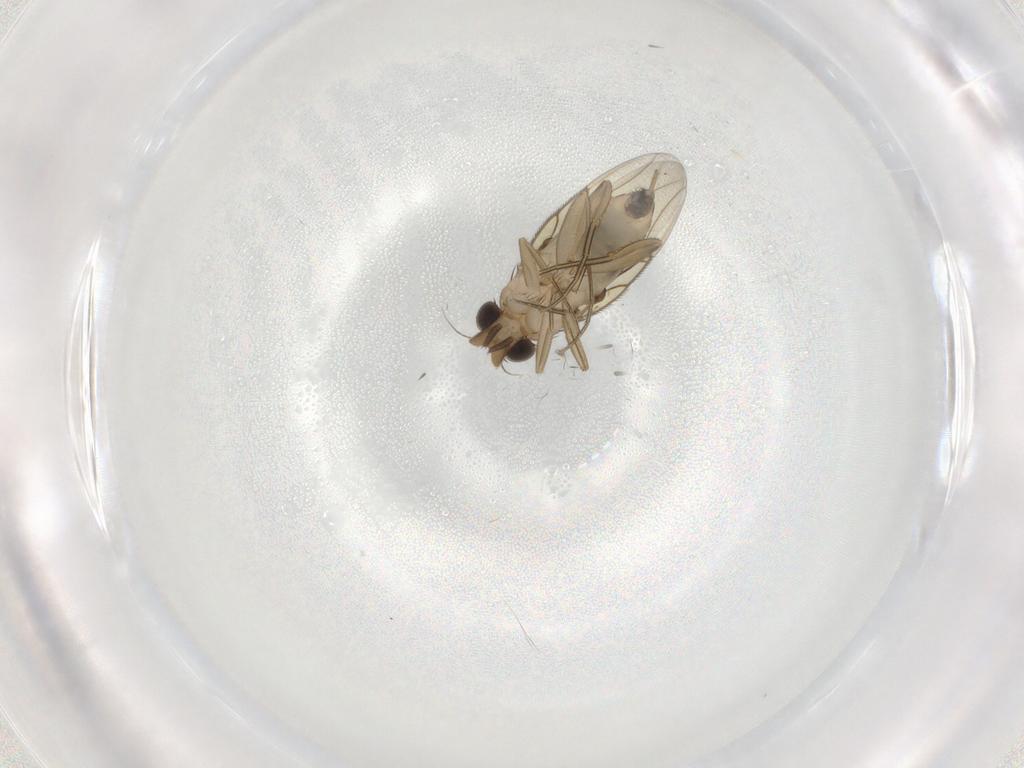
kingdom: Animalia
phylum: Arthropoda
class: Insecta
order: Diptera
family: Phoridae
